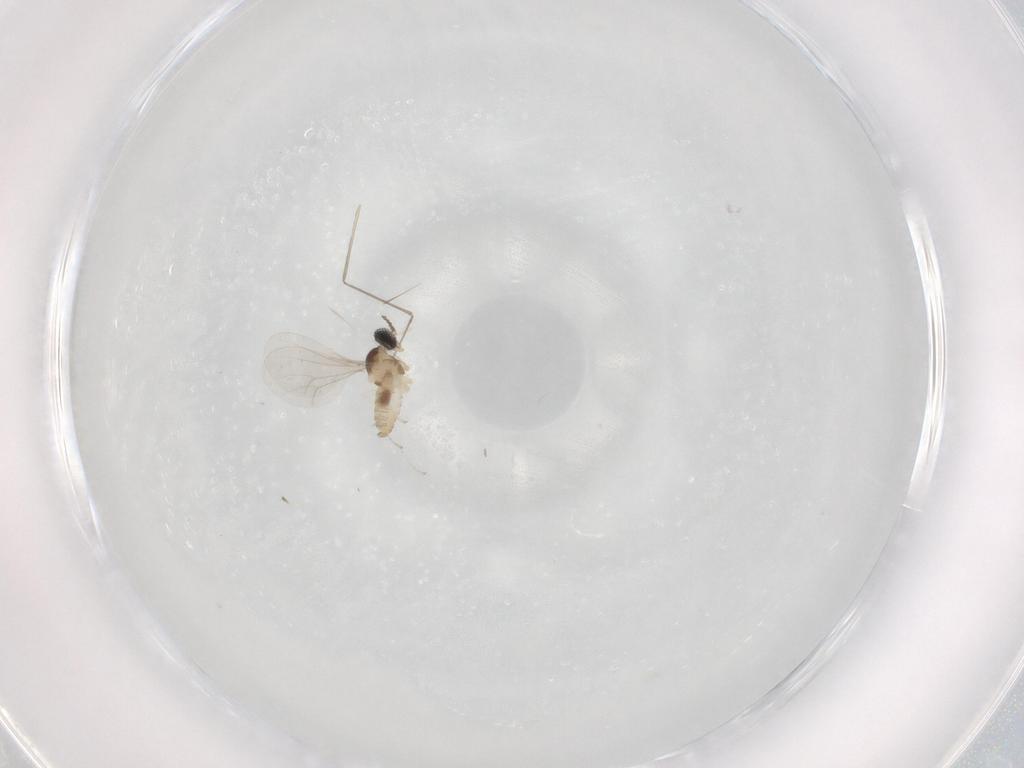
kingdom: Animalia
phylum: Arthropoda
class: Insecta
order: Diptera
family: Cecidomyiidae
